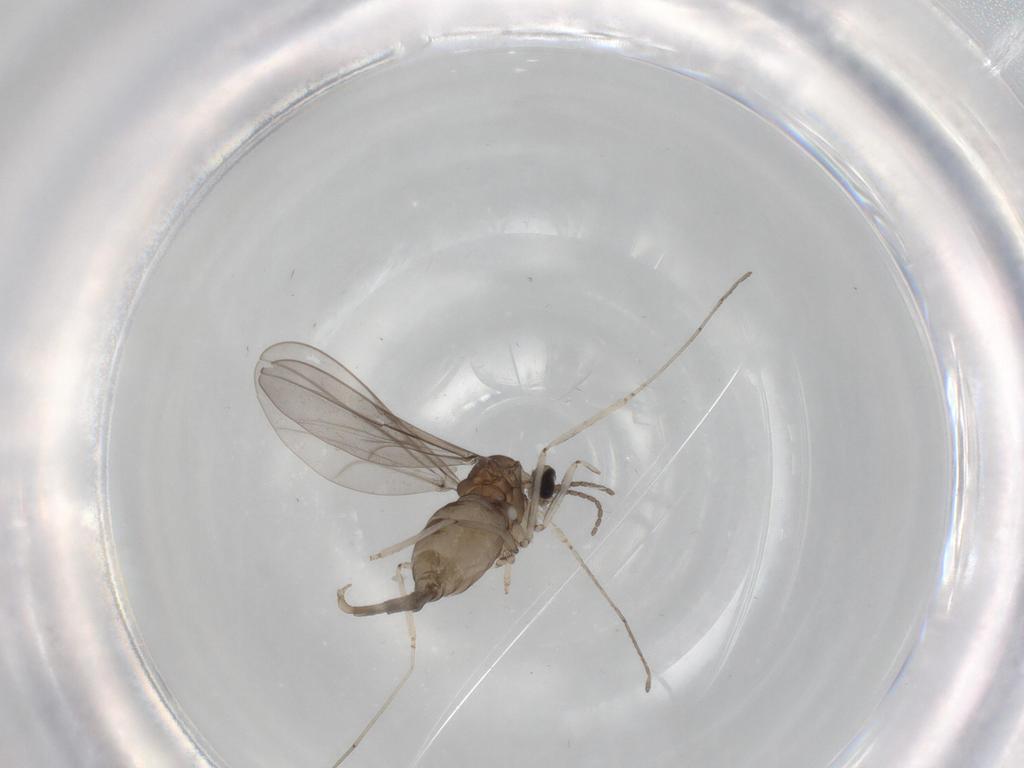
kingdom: Animalia
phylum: Arthropoda
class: Insecta
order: Diptera
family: Cecidomyiidae
